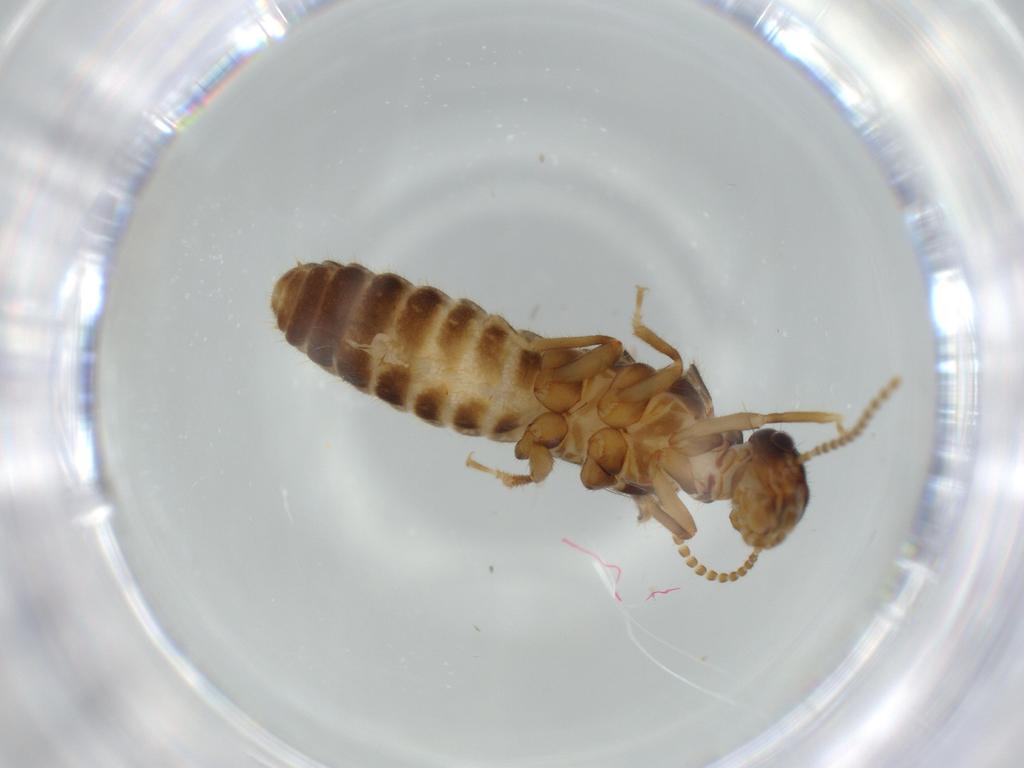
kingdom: Animalia
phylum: Arthropoda
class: Insecta
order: Blattodea
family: Termitidae
